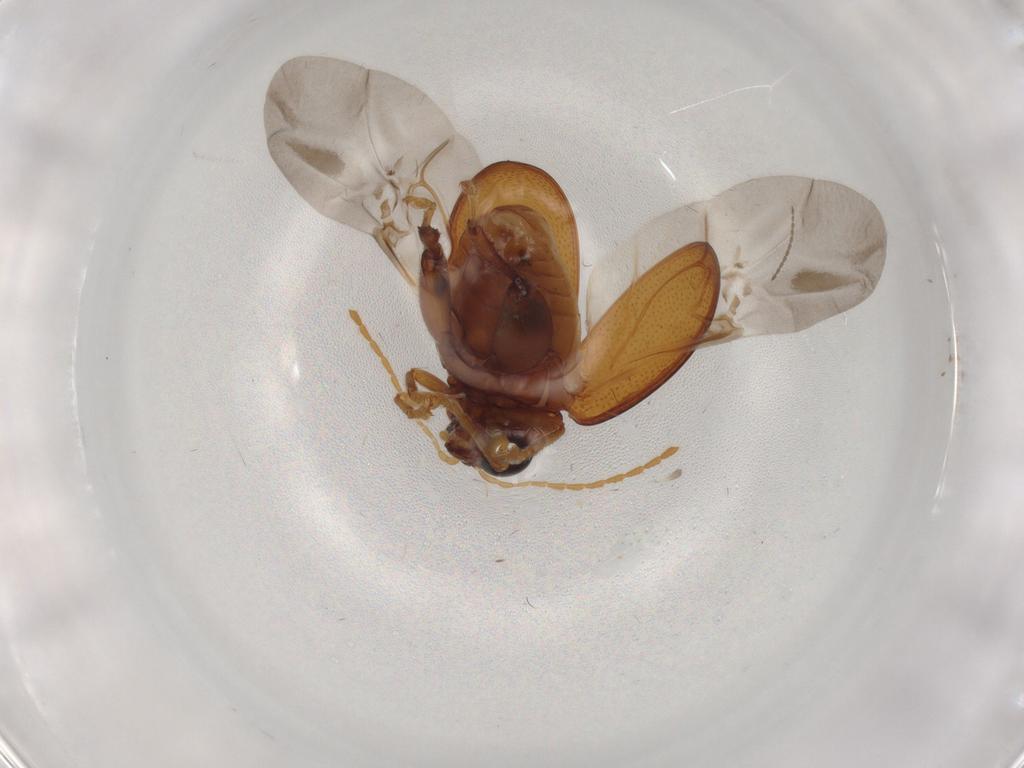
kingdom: Animalia
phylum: Arthropoda
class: Insecta
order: Coleoptera
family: Chrysomelidae
